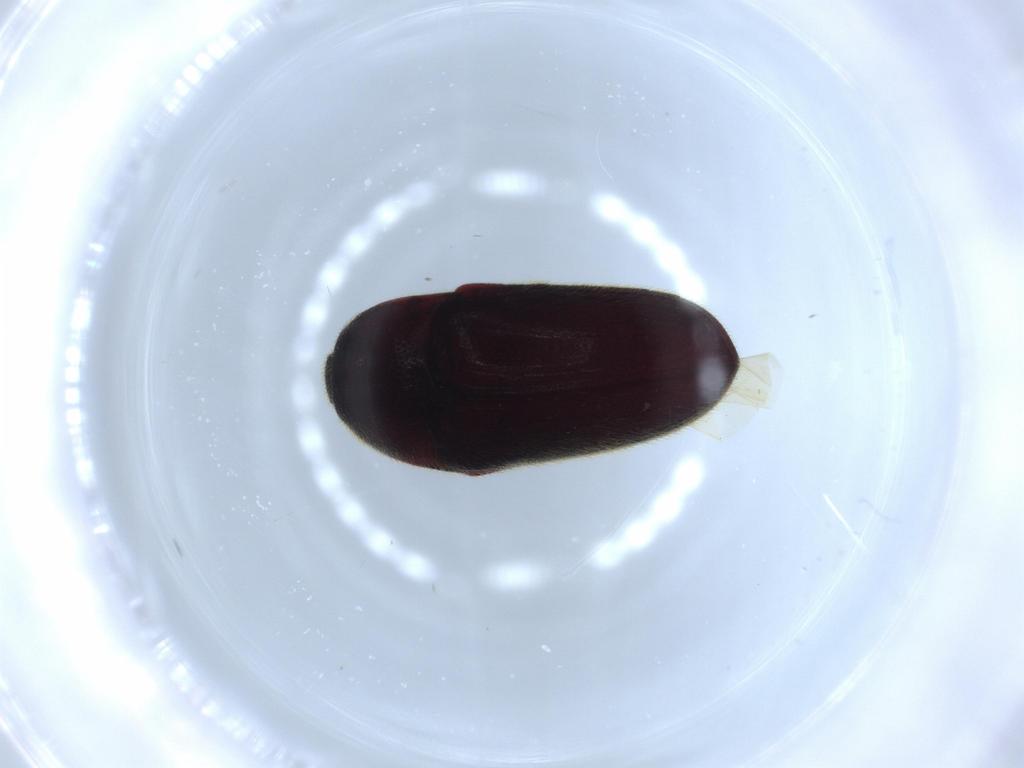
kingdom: Animalia
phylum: Arthropoda
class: Insecta
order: Coleoptera
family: Throscidae
